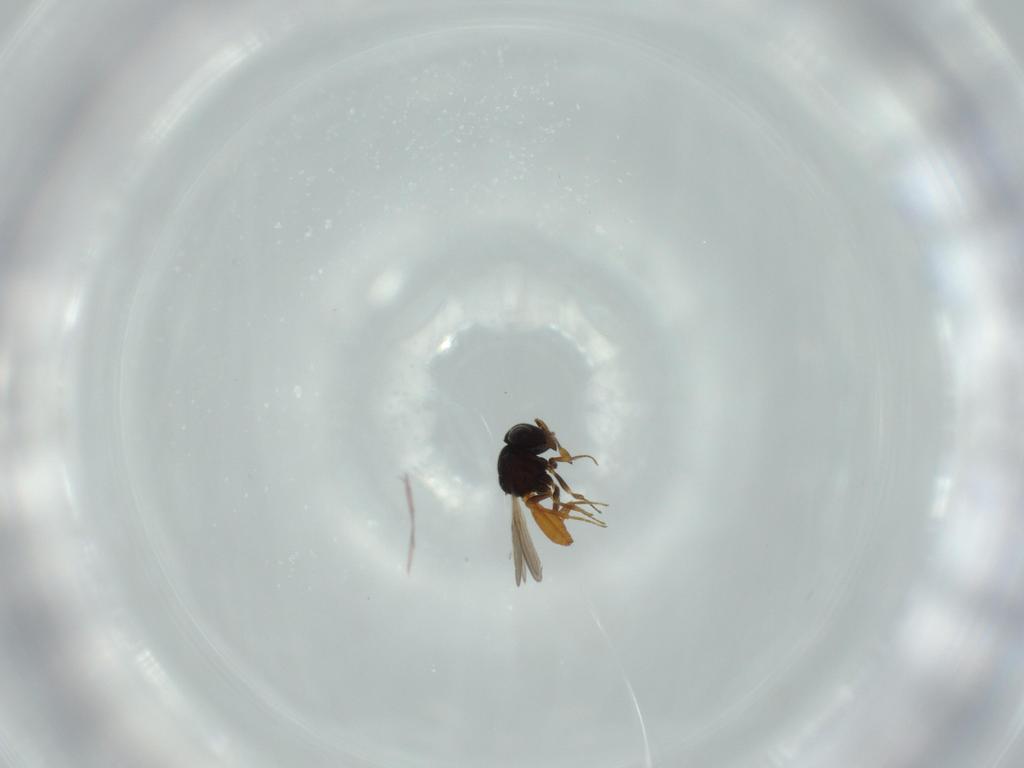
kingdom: Animalia
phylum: Arthropoda
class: Insecta
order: Hymenoptera
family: Scelionidae
